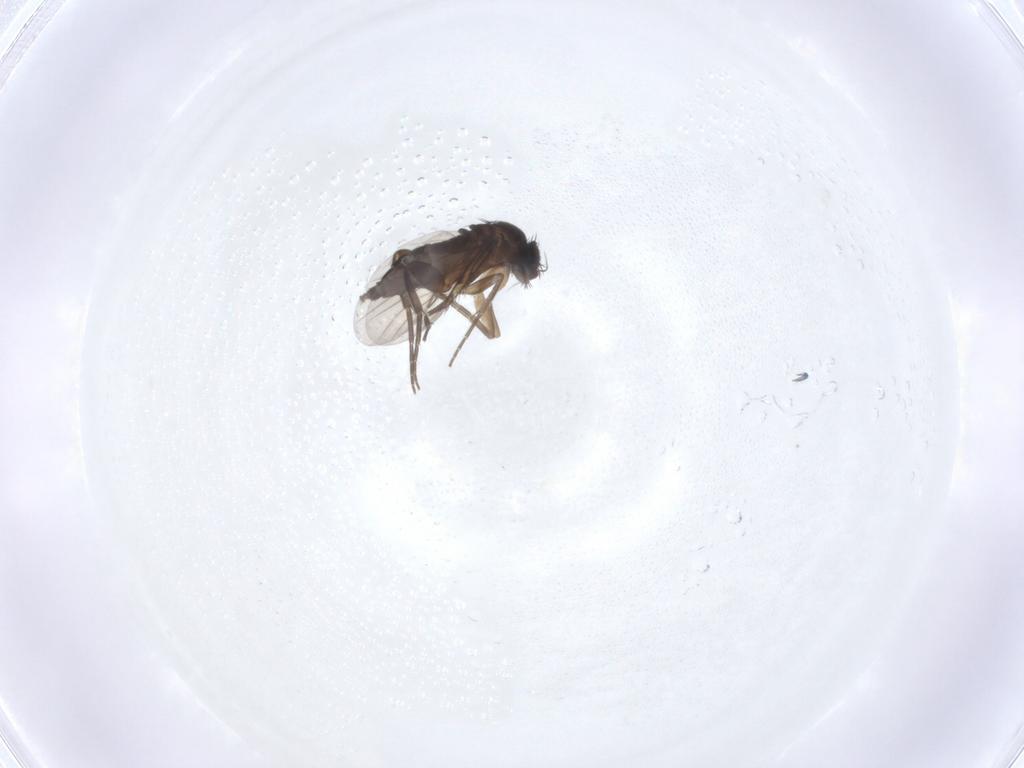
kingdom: Animalia
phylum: Arthropoda
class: Insecta
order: Diptera
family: Phoridae
